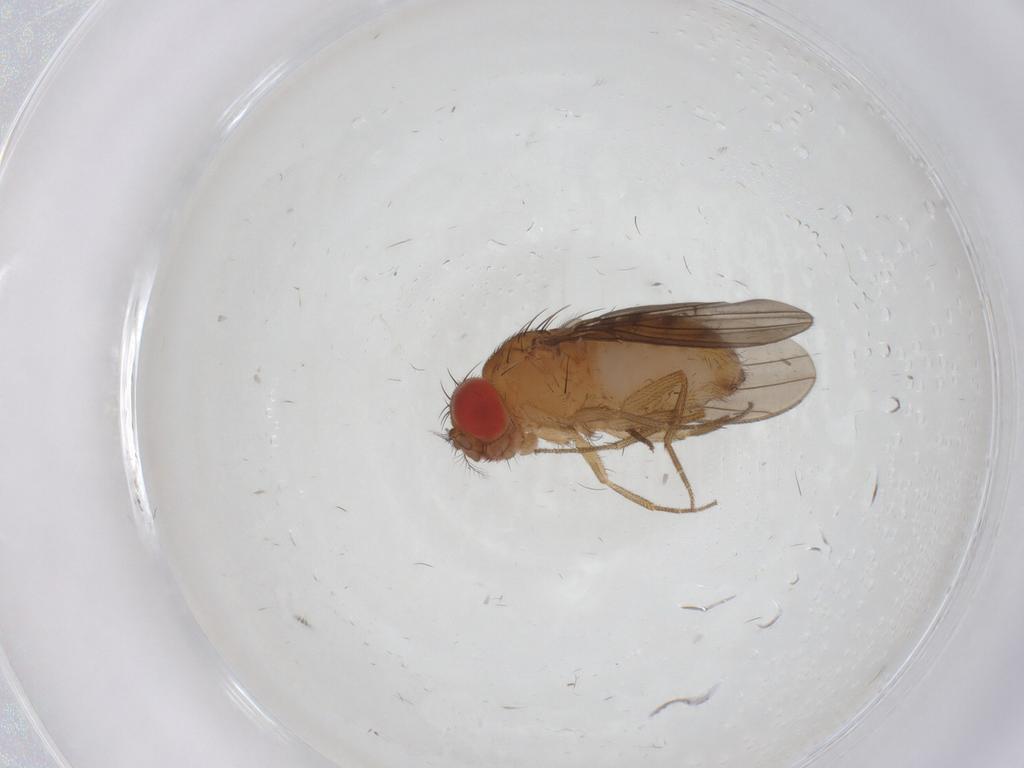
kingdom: Animalia
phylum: Arthropoda
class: Insecta
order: Diptera
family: Drosophilidae
